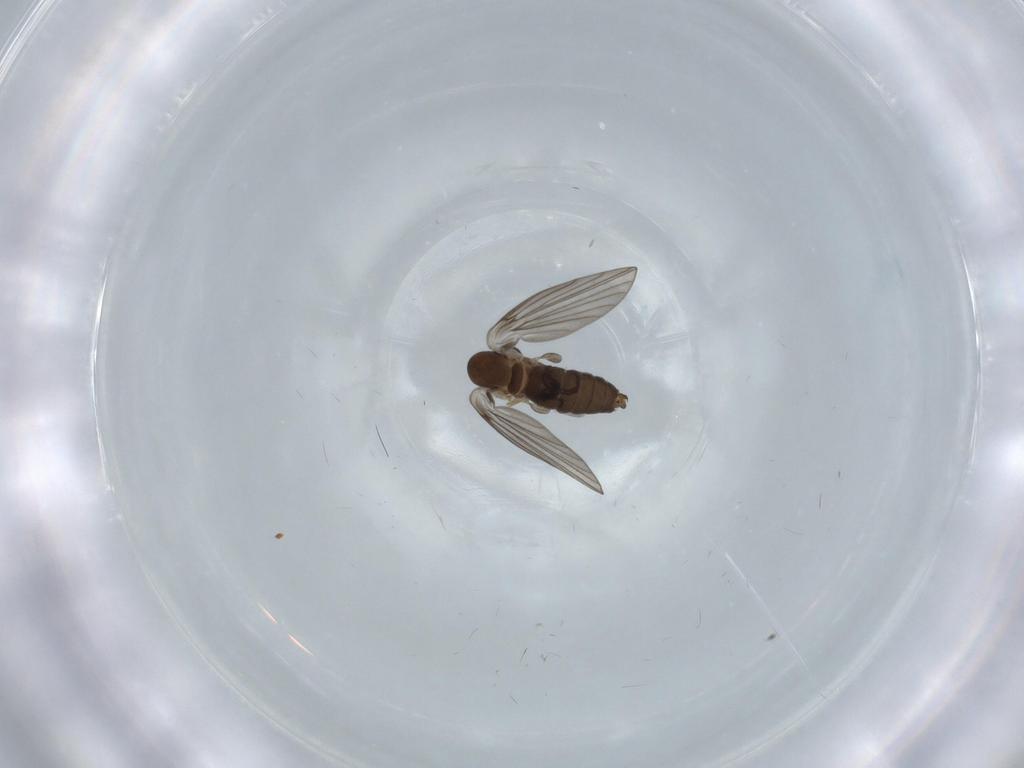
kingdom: Animalia
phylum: Arthropoda
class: Insecta
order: Diptera
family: Psychodidae
